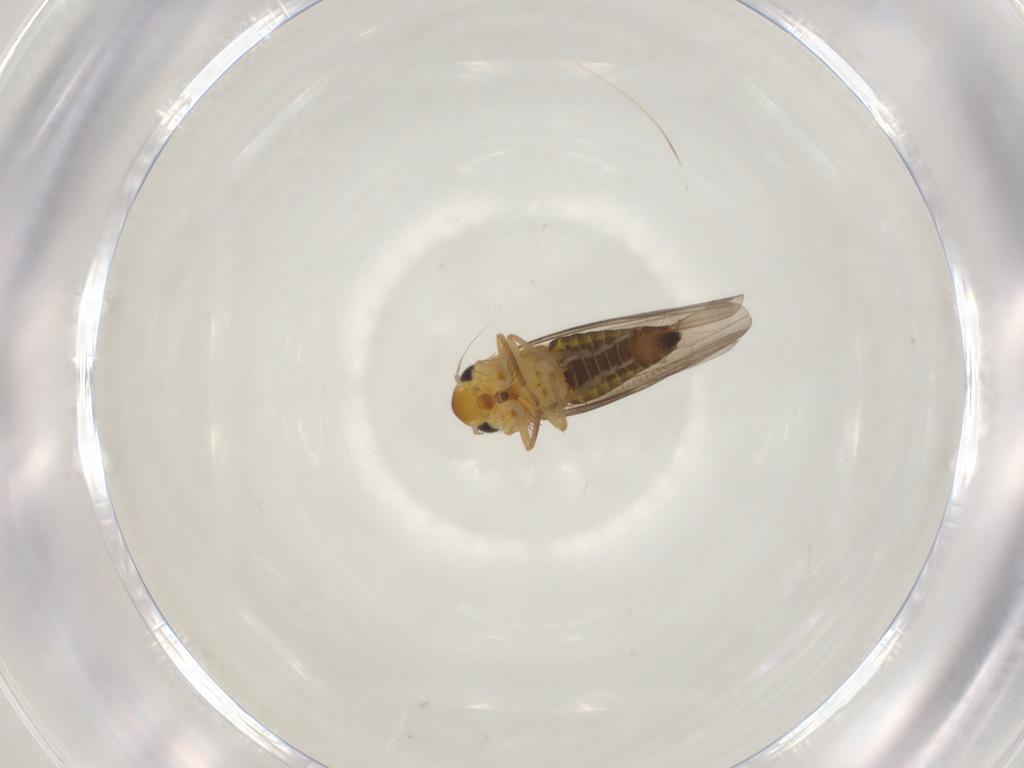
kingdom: Animalia
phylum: Arthropoda
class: Insecta
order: Hemiptera
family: Cicadellidae
